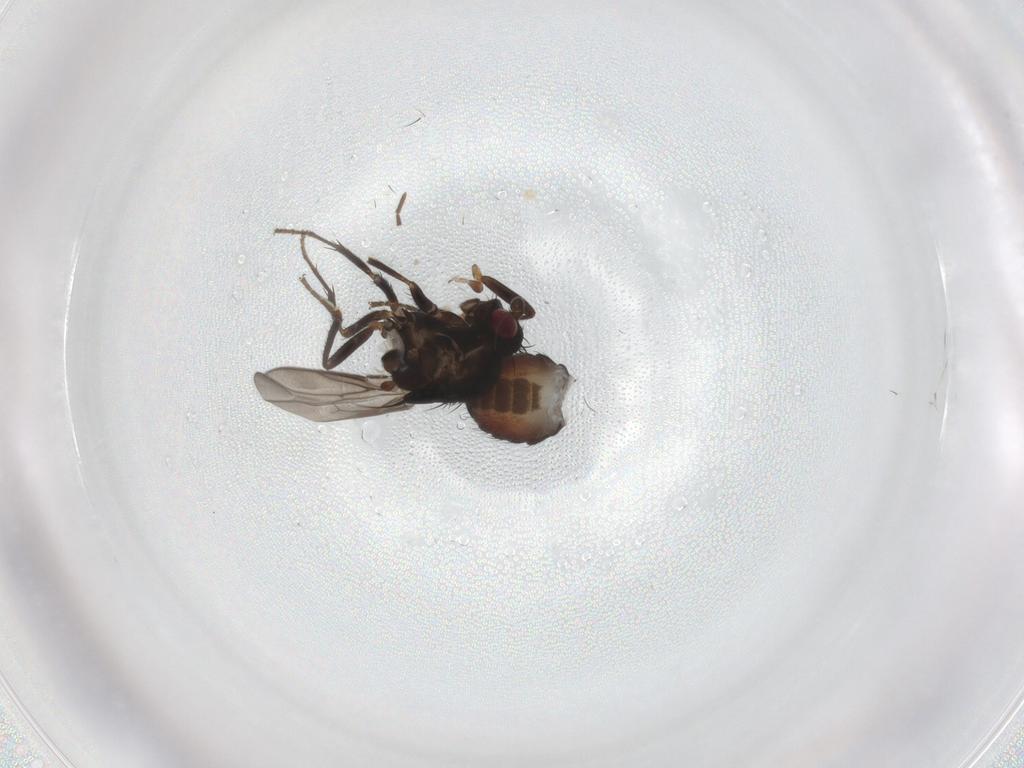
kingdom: Animalia
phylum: Arthropoda
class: Insecta
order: Diptera
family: Sphaeroceridae
